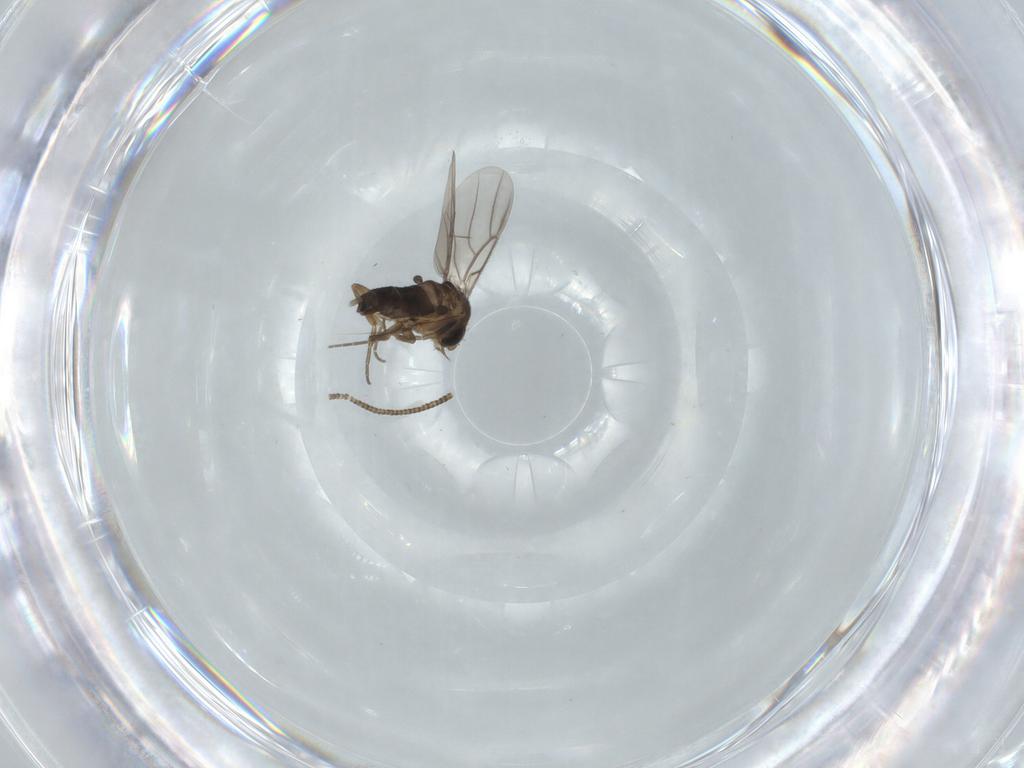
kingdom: Animalia
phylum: Arthropoda
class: Insecta
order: Diptera
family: Phoridae
